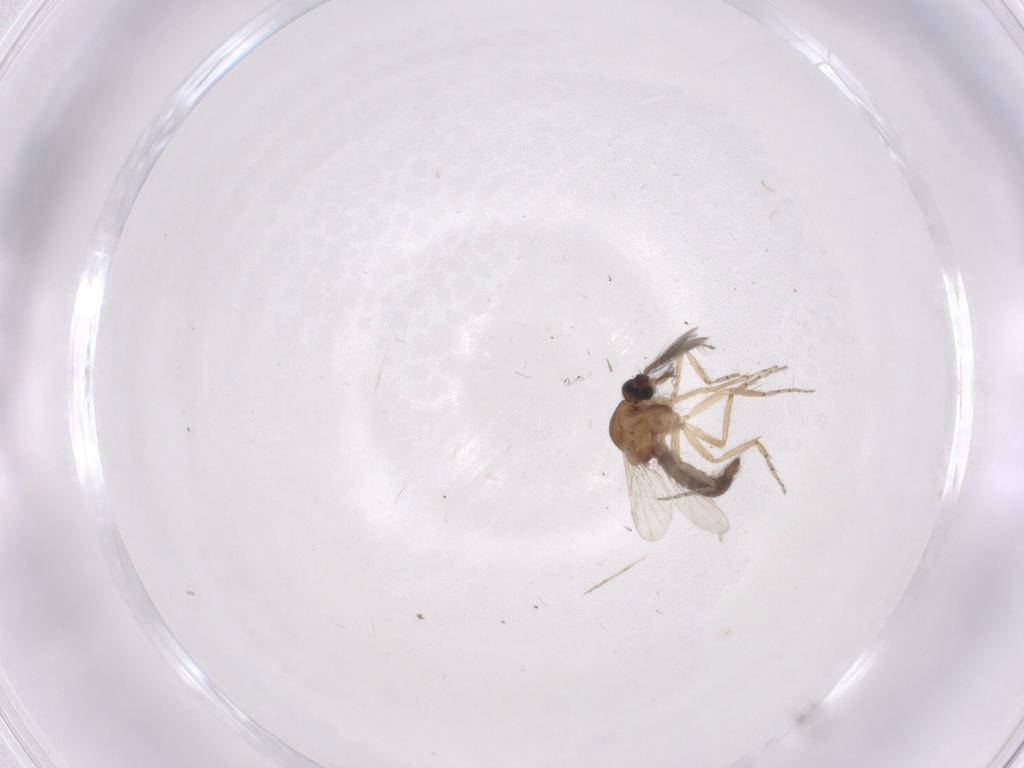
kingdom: Animalia
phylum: Arthropoda
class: Insecta
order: Diptera
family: Ceratopogonidae
